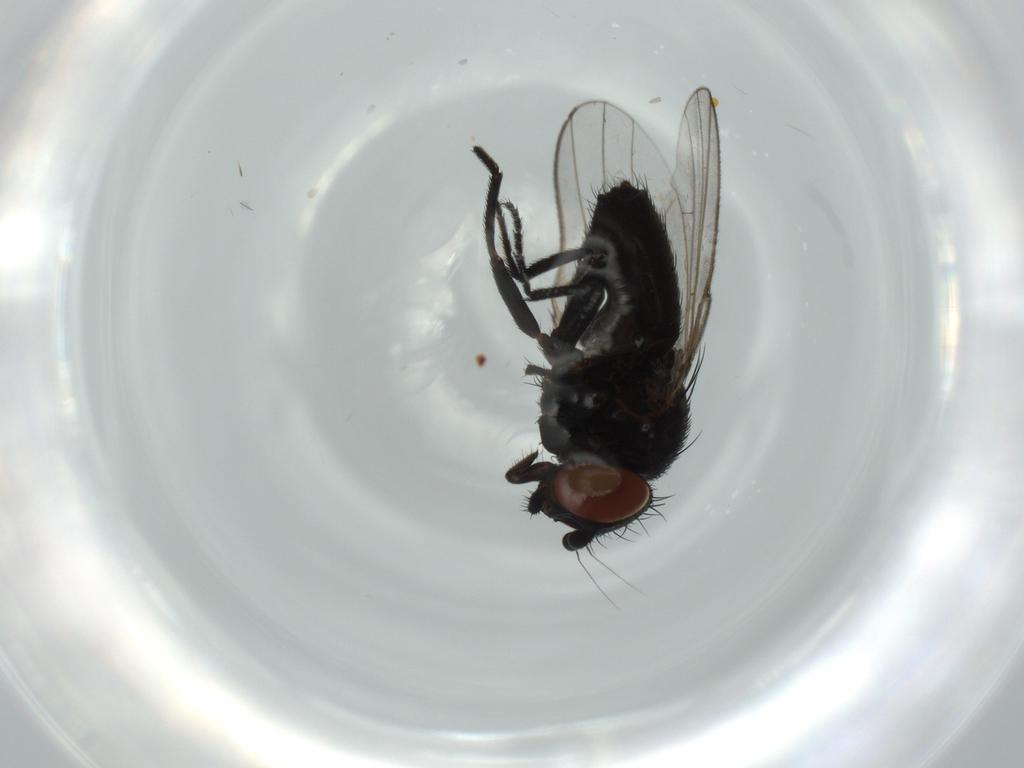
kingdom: Animalia
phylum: Arthropoda
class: Insecta
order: Diptera
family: Milichiidae
